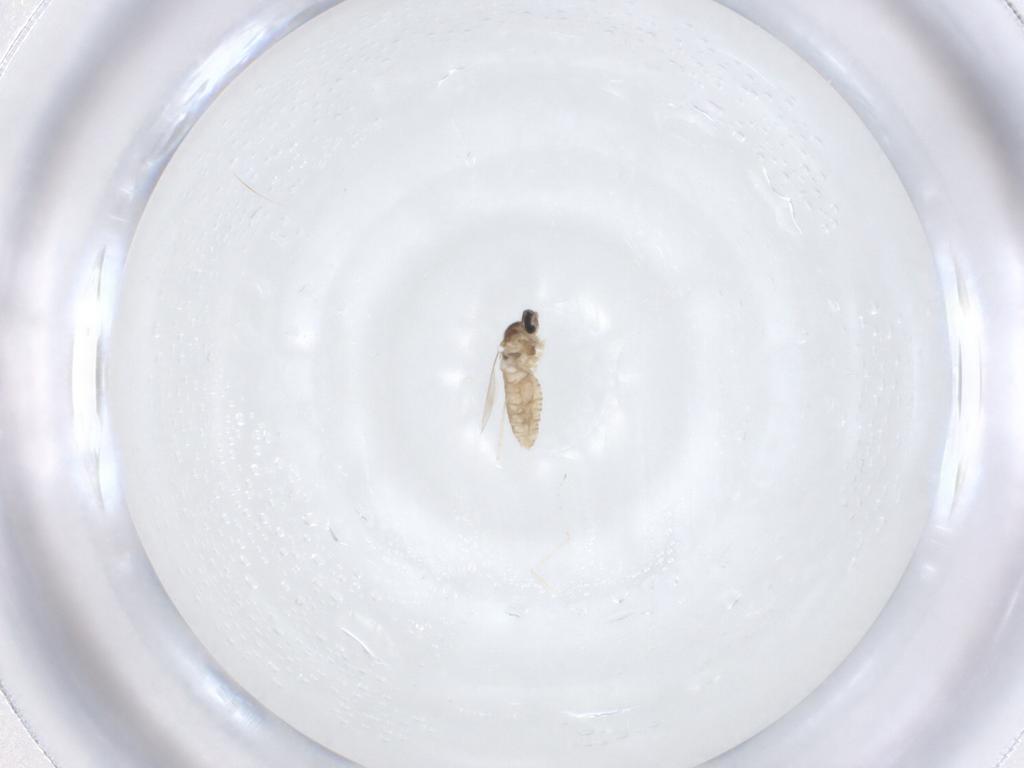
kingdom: Animalia
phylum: Arthropoda
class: Insecta
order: Diptera
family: Cecidomyiidae
